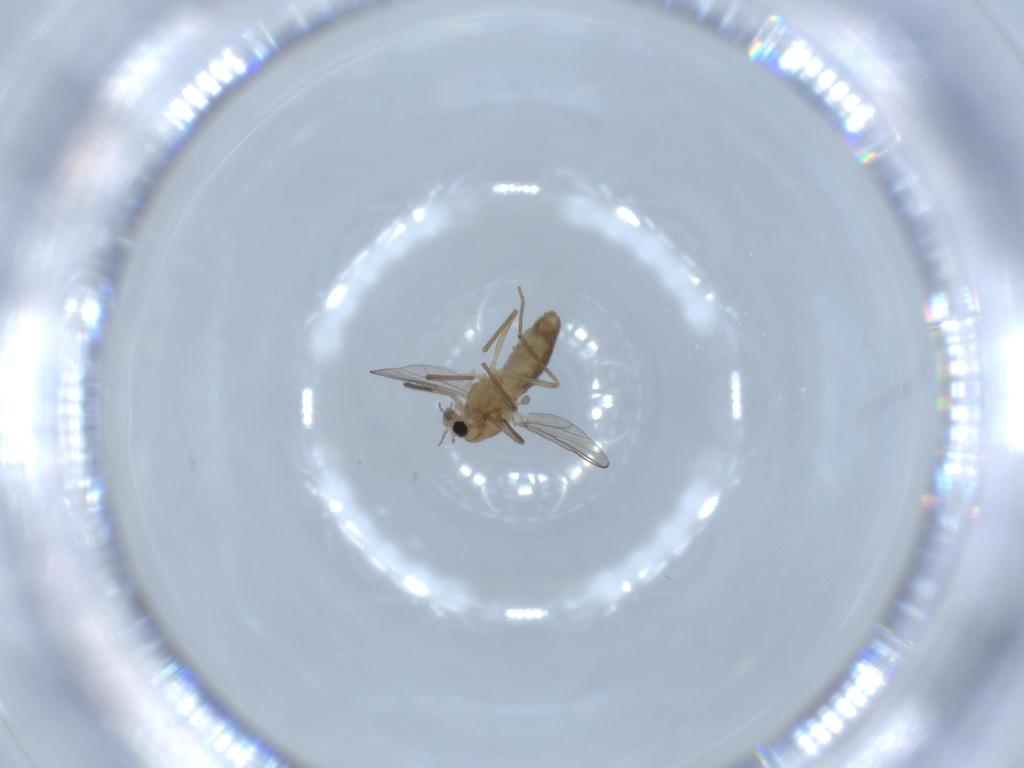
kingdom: Animalia
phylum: Arthropoda
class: Insecta
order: Diptera
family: Chironomidae
